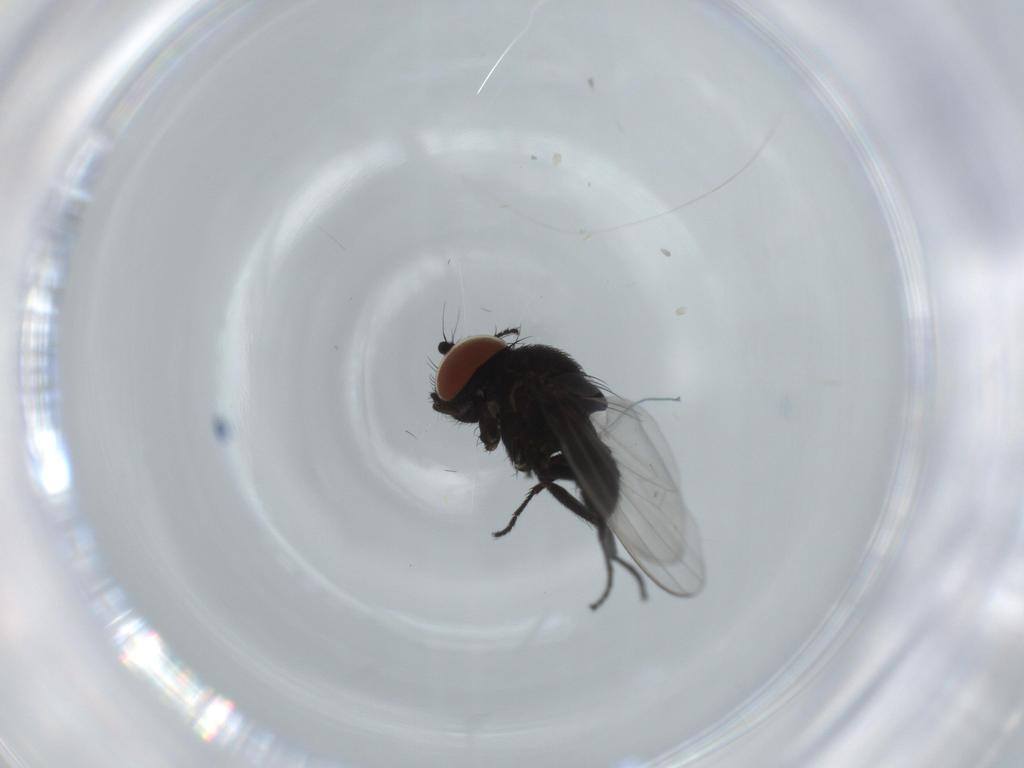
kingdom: Animalia
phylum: Arthropoda
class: Insecta
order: Diptera
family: Milichiidae
